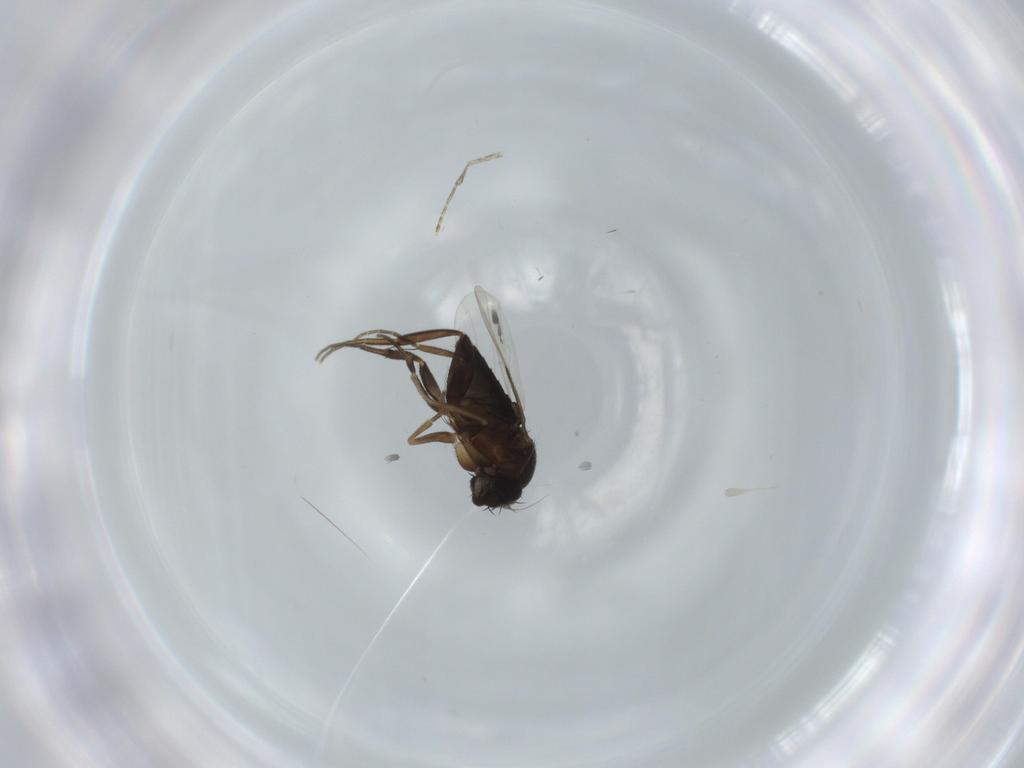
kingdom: Animalia
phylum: Arthropoda
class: Insecta
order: Diptera
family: Phoridae
